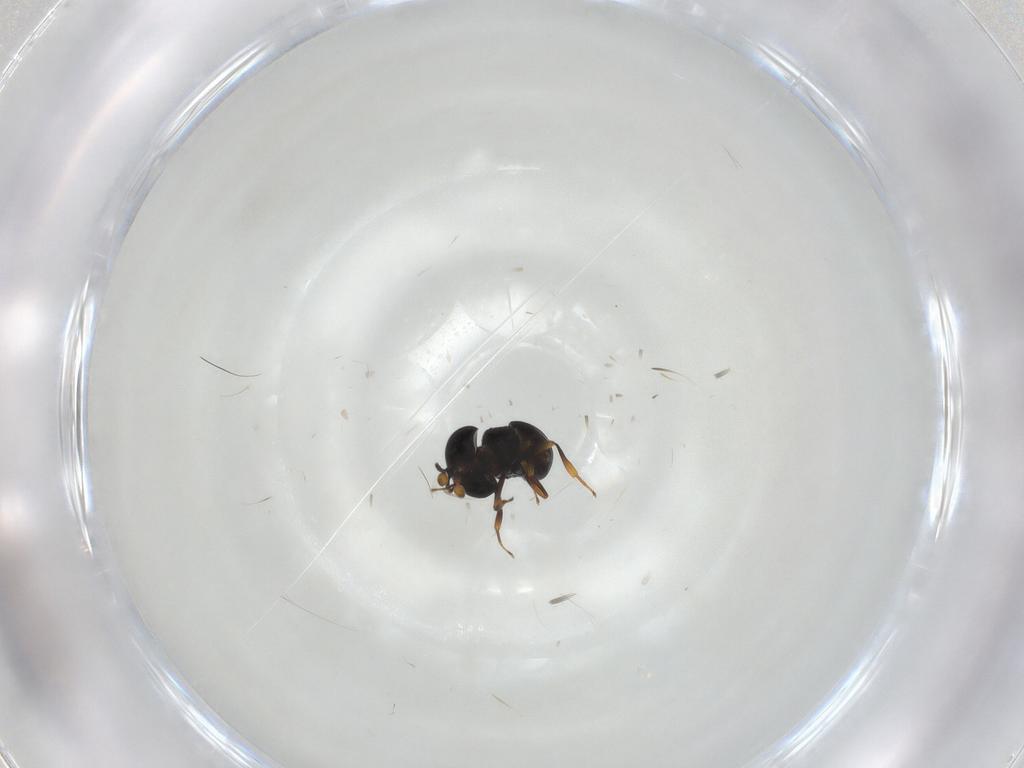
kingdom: Animalia
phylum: Arthropoda
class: Insecta
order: Hymenoptera
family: Scelionidae
